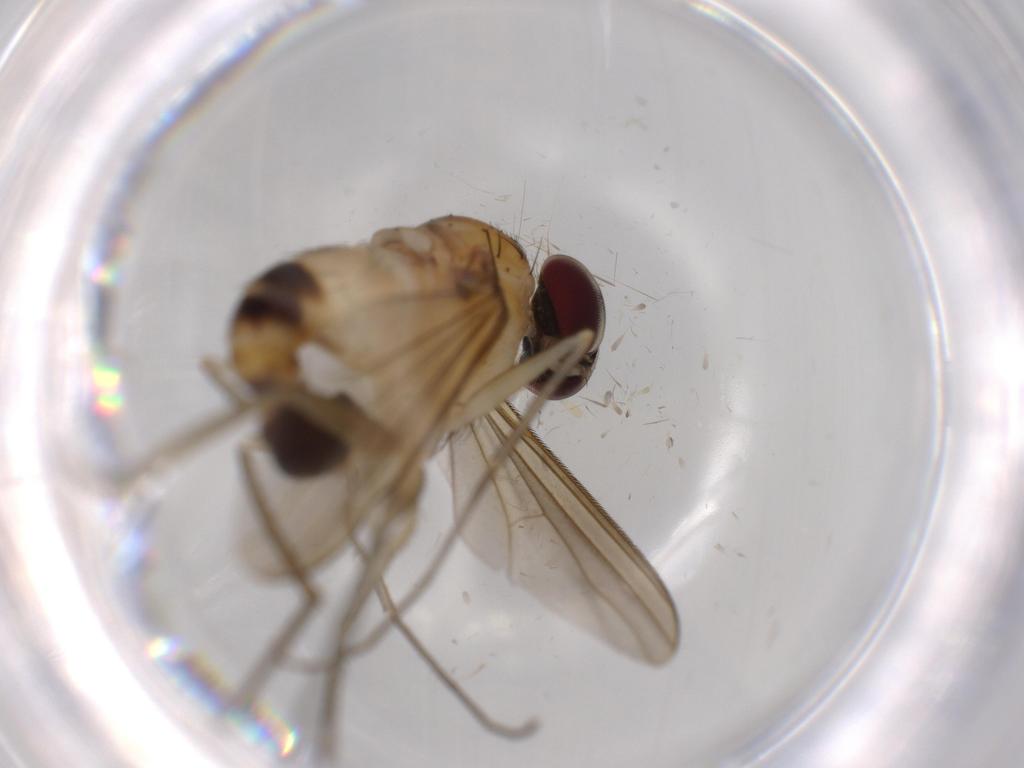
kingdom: Animalia
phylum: Arthropoda
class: Insecta
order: Diptera
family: Dolichopodidae
